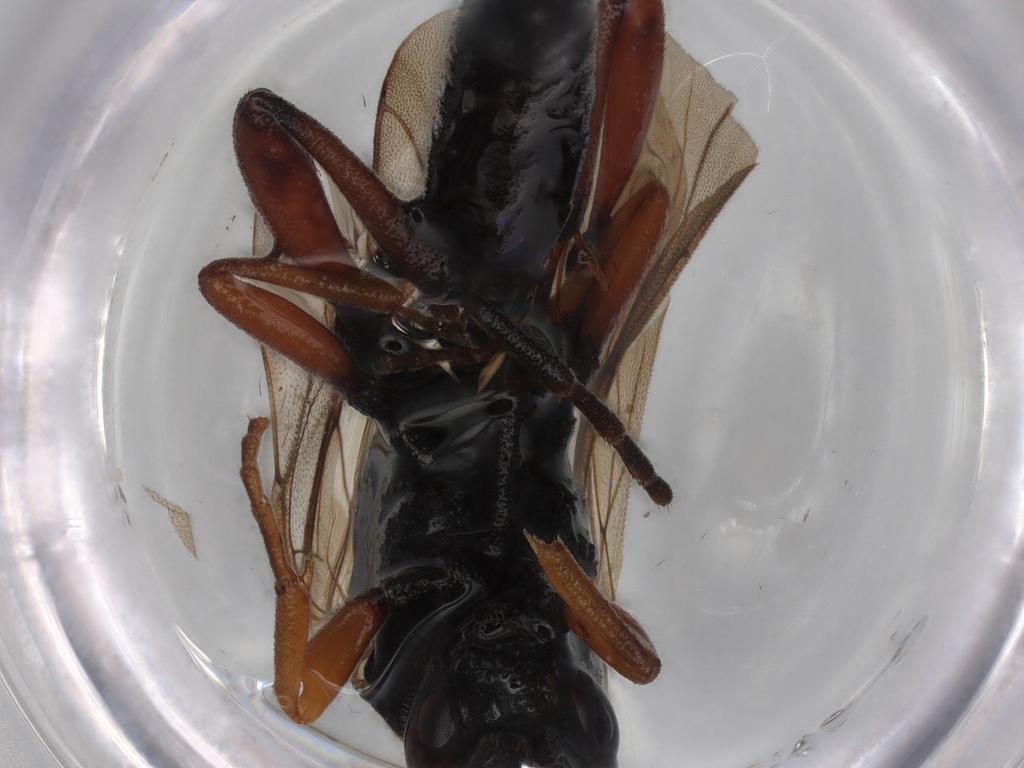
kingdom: Animalia
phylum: Arthropoda
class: Insecta
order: Hymenoptera
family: Ichneumonidae
